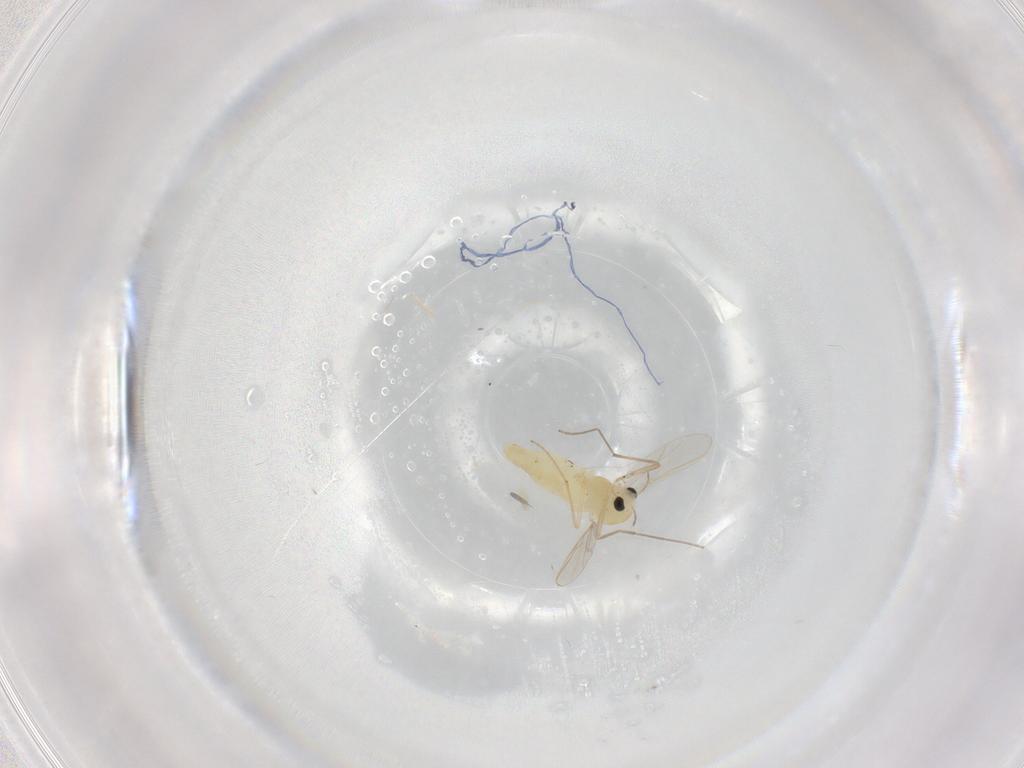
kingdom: Animalia
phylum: Arthropoda
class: Insecta
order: Diptera
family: Chironomidae
